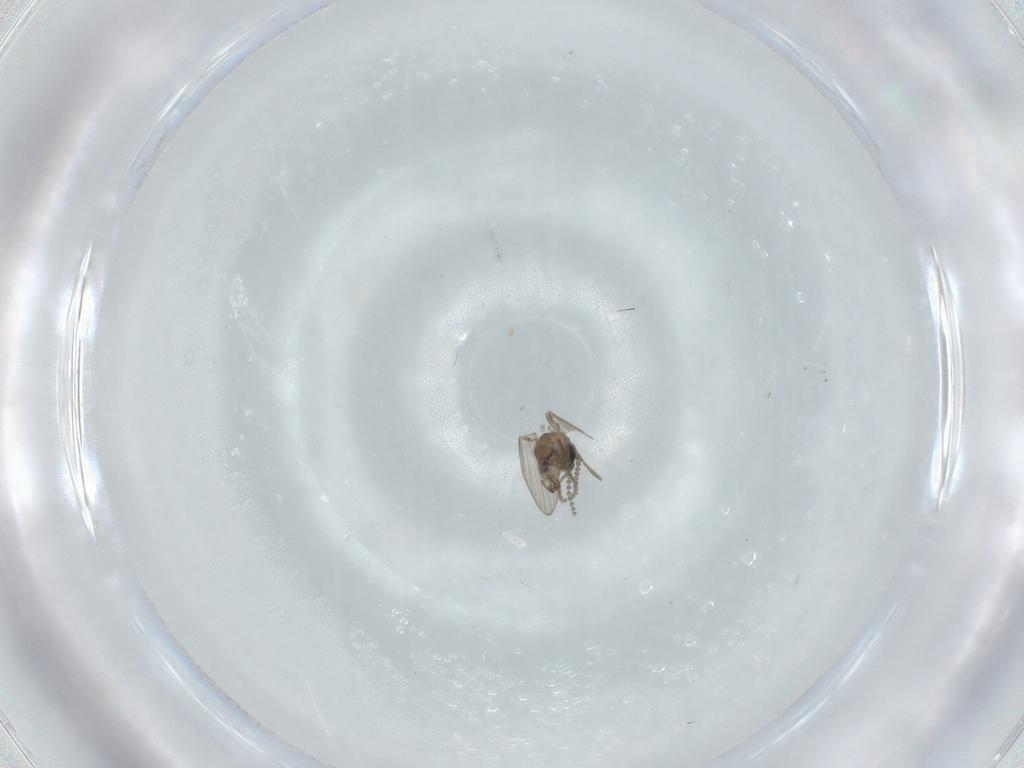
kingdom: Animalia
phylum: Arthropoda
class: Insecta
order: Diptera
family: Psychodidae
